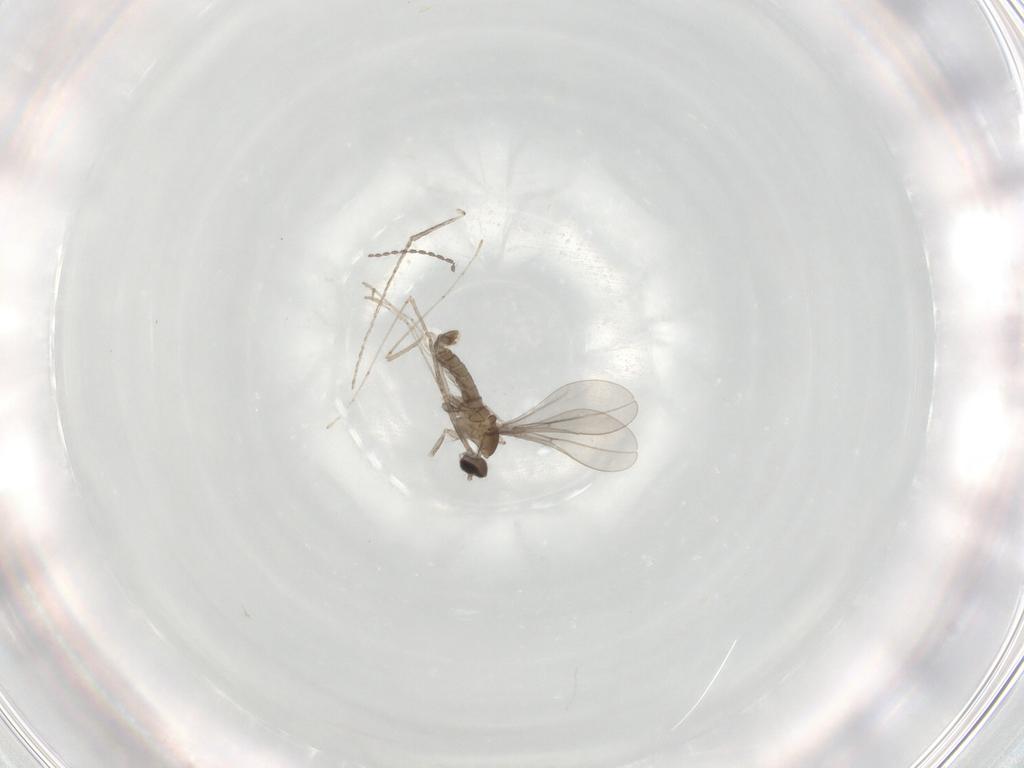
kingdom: Animalia
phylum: Arthropoda
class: Insecta
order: Diptera
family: Cecidomyiidae
